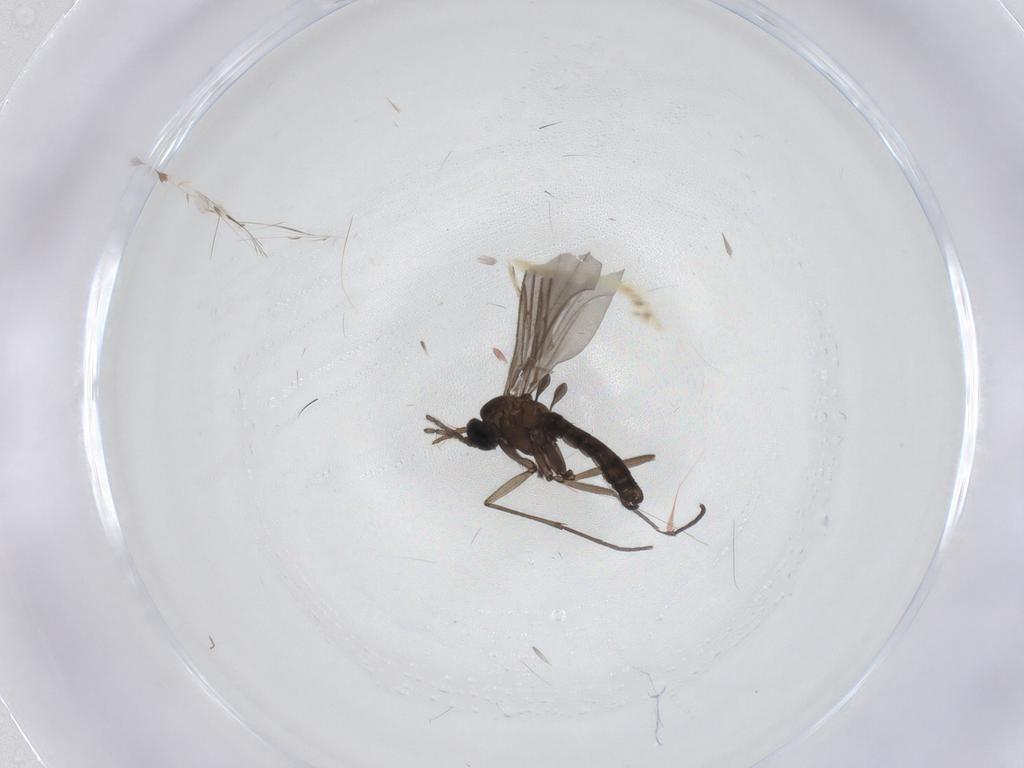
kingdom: Animalia
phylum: Arthropoda
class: Insecta
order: Diptera
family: Sciaridae
